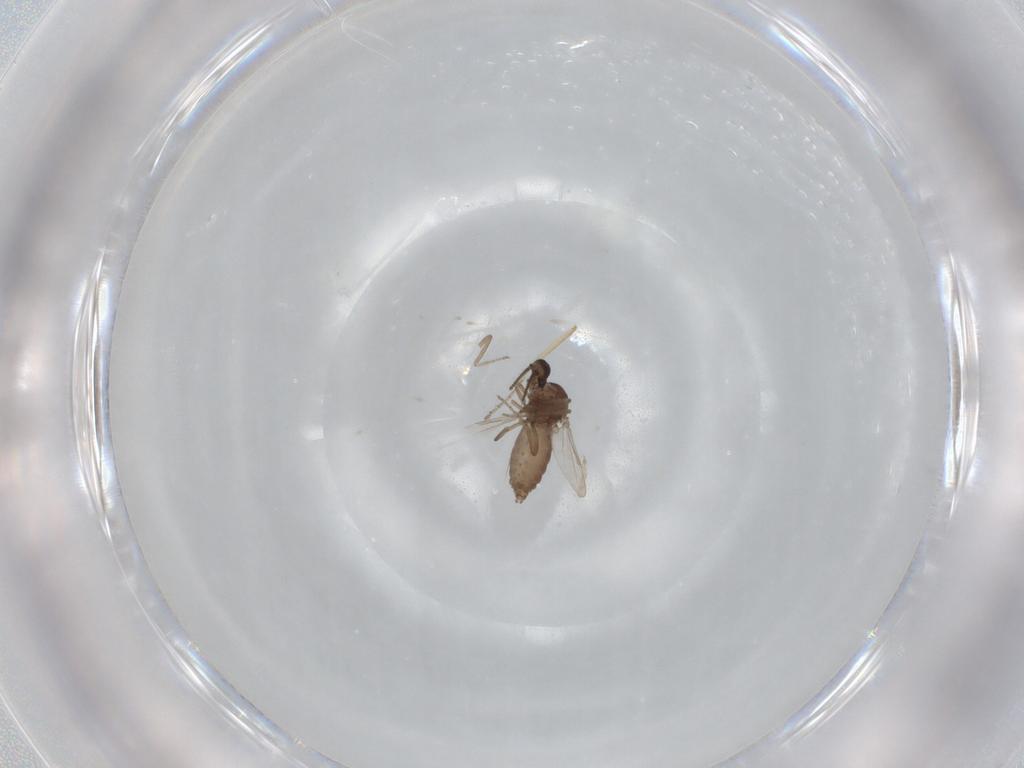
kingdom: Animalia
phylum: Arthropoda
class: Insecta
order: Diptera
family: Ceratopogonidae
